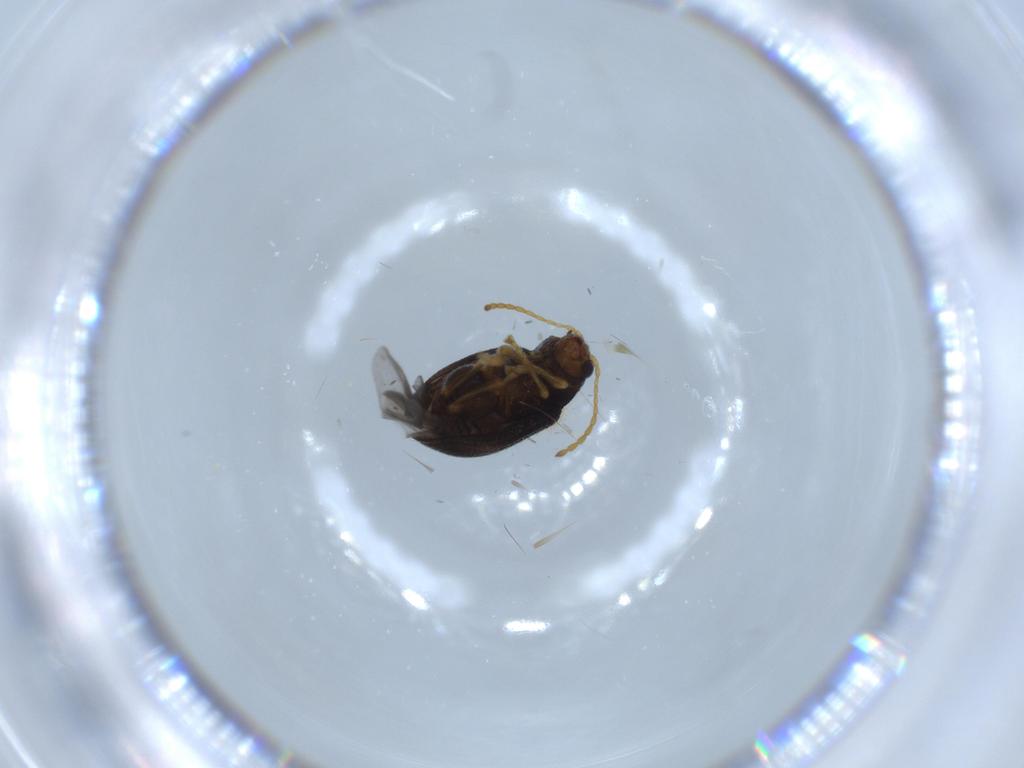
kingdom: Animalia
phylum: Arthropoda
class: Insecta
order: Coleoptera
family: Chrysomelidae
